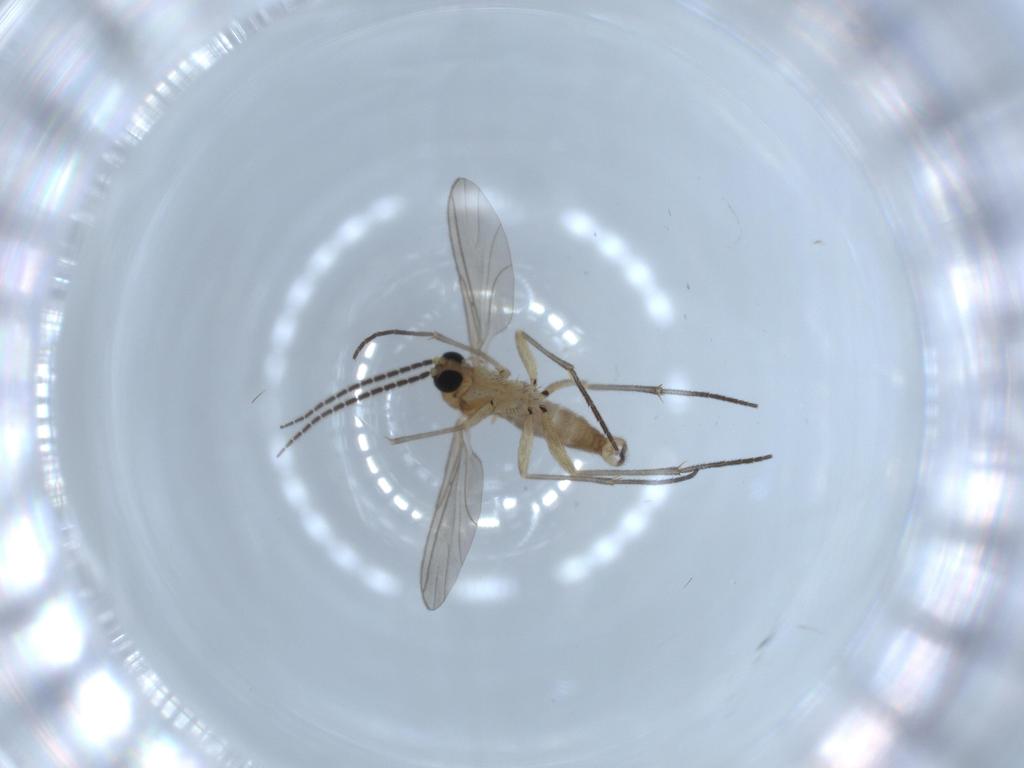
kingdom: Animalia
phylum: Arthropoda
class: Insecta
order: Diptera
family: Sciaridae
